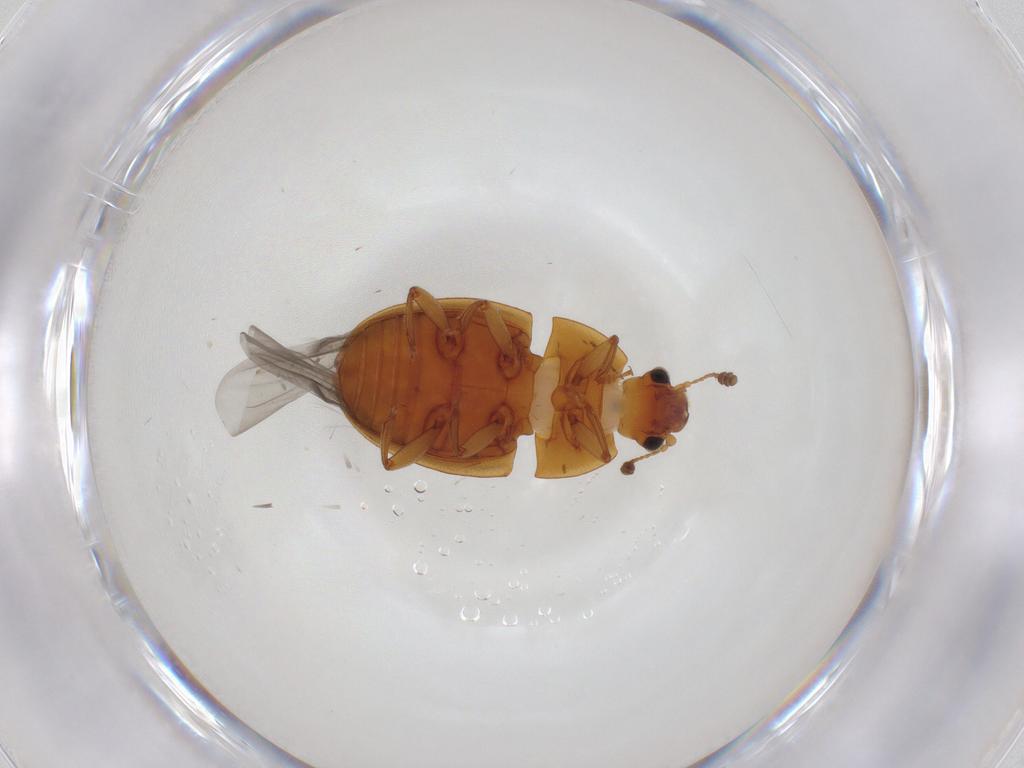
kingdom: Animalia
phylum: Arthropoda
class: Insecta
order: Coleoptera
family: Nitidulidae
